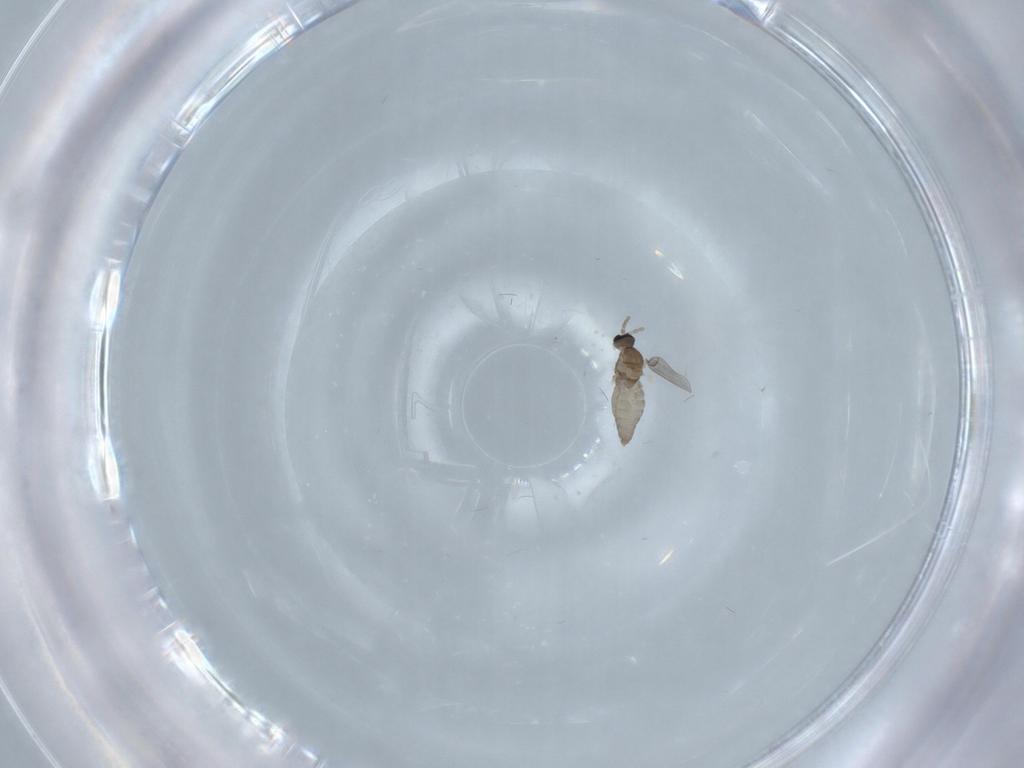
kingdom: Animalia
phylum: Arthropoda
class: Insecta
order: Diptera
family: Cecidomyiidae
